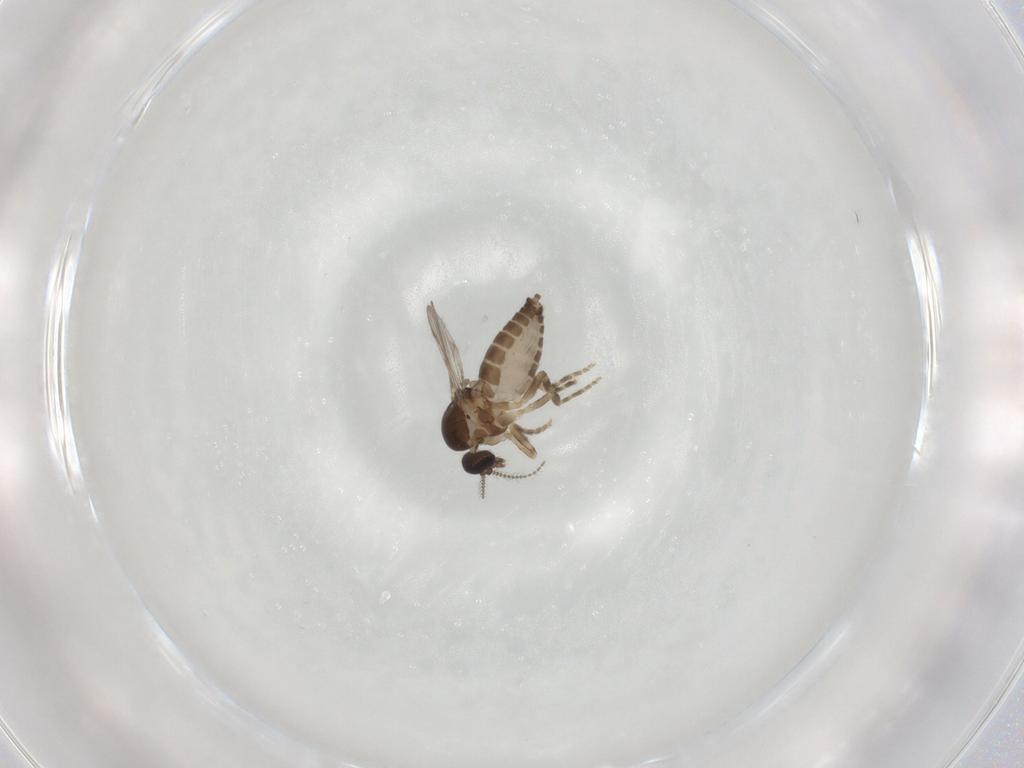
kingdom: Animalia
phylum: Arthropoda
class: Insecta
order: Diptera
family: Ceratopogonidae
